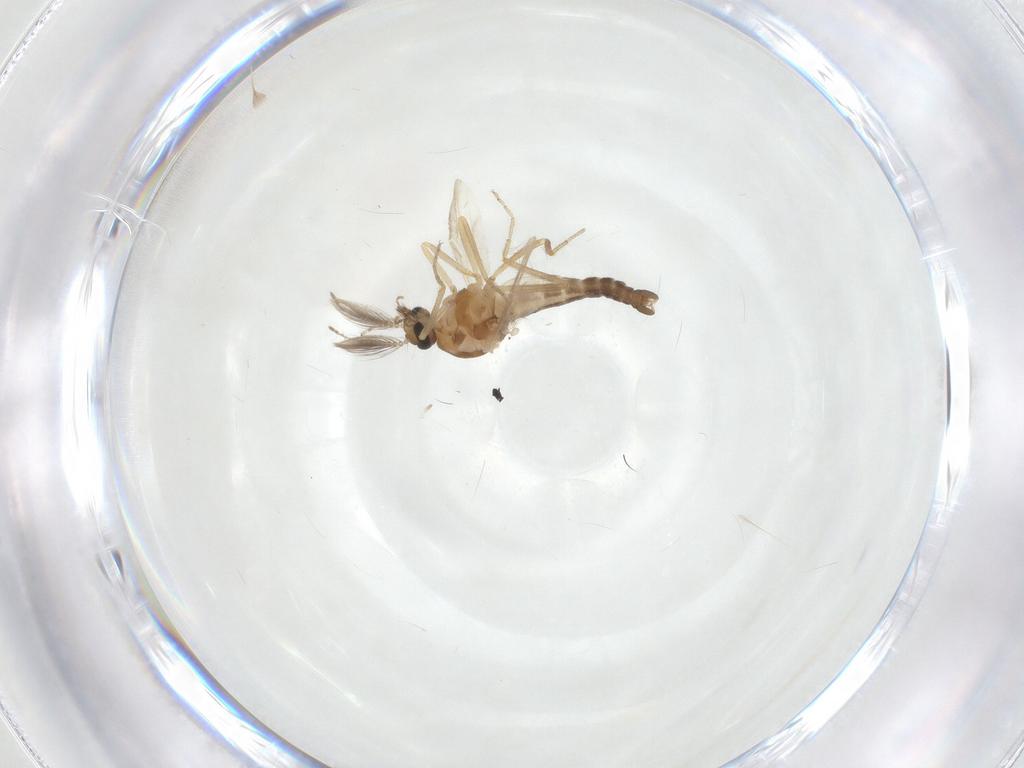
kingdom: Animalia
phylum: Arthropoda
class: Insecta
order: Diptera
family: Ceratopogonidae
